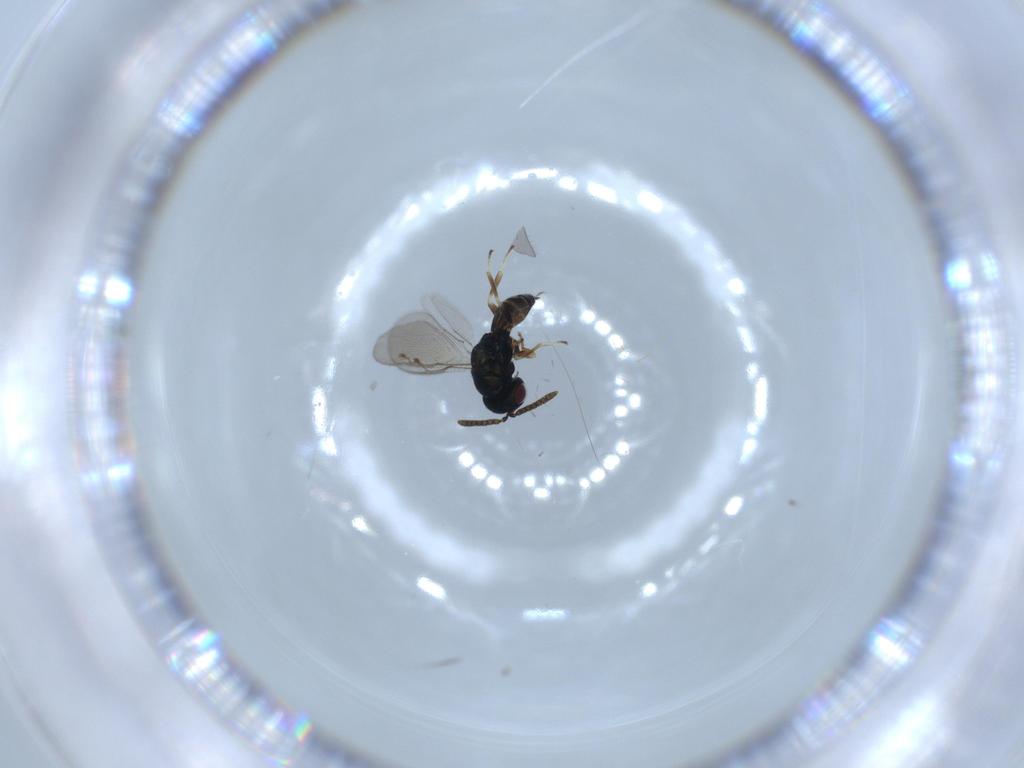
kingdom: Animalia
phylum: Arthropoda
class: Insecta
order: Hymenoptera
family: Pteromalidae
